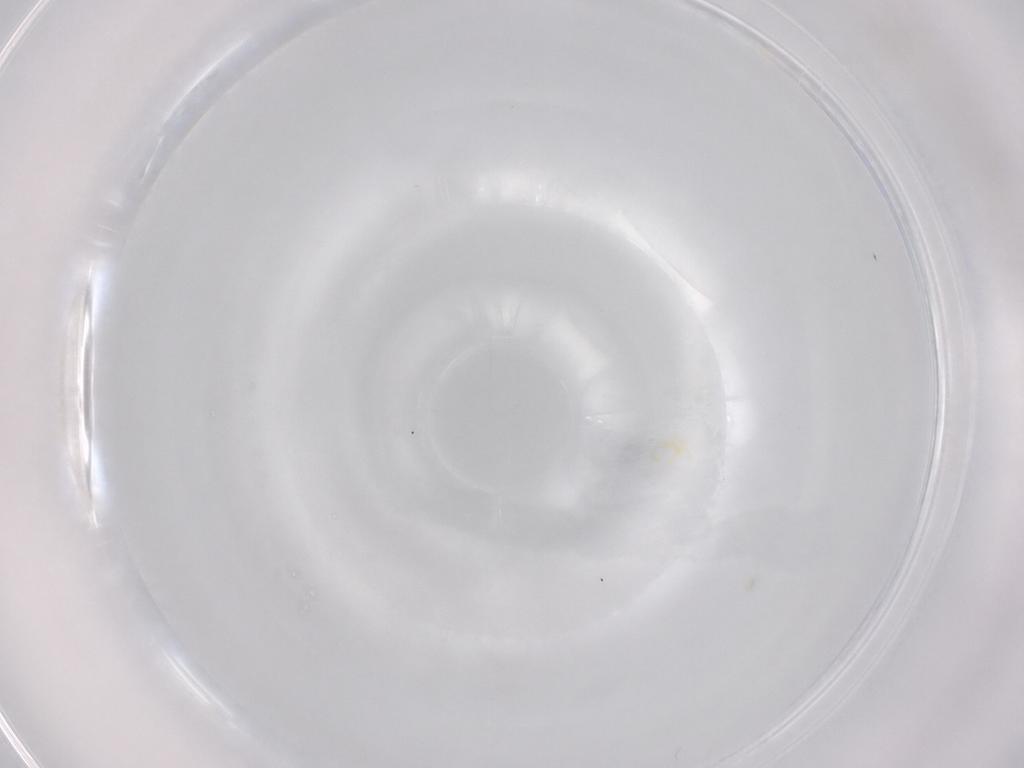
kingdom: Animalia
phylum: Arthropoda
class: Arachnida
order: Trombidiformes
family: Eupodidae
